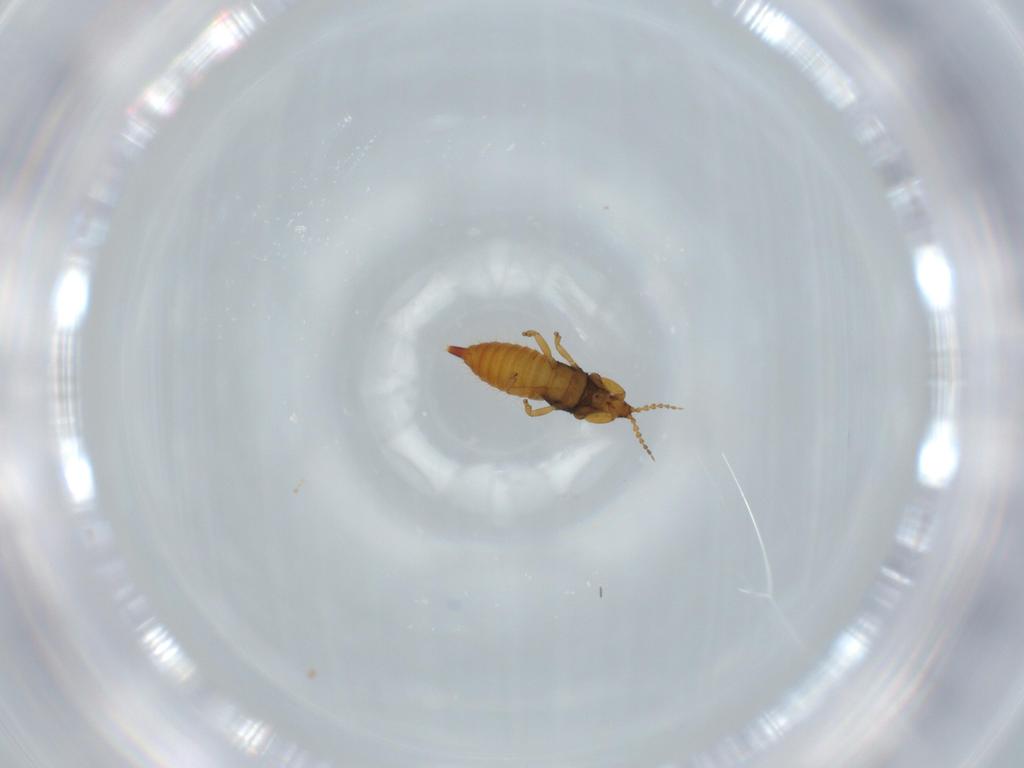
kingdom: Animalia
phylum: Arthropoda
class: Insecta
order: Thysanoptera
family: Phlaeothripidae
